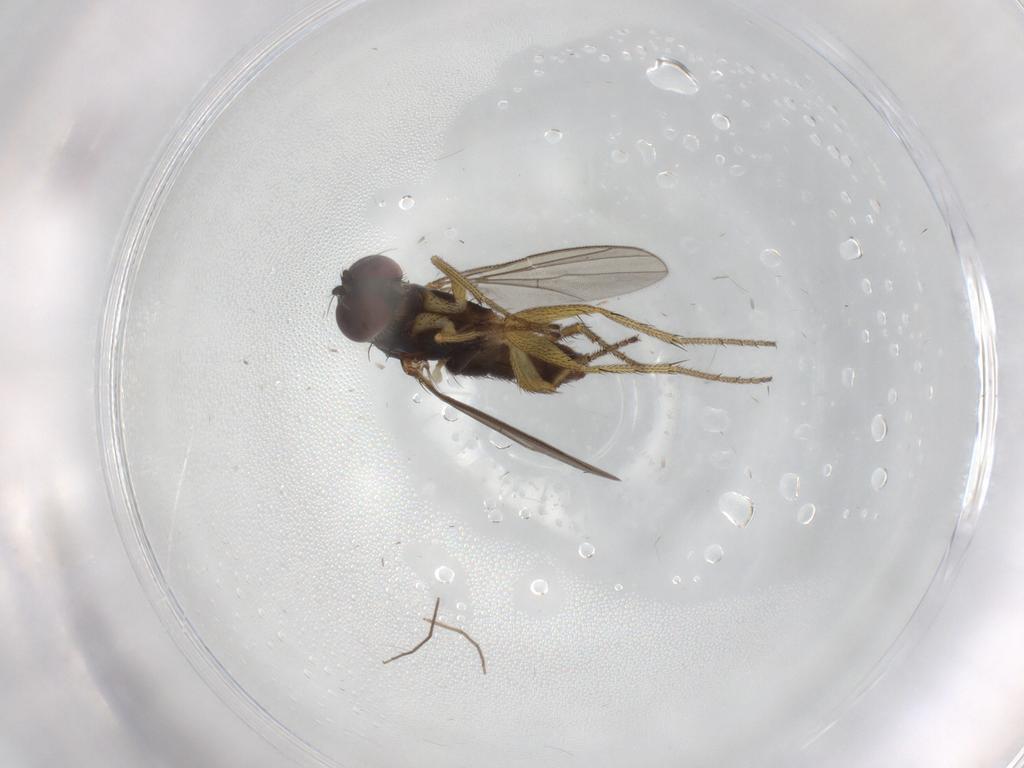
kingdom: Animalia
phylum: Arthropoda
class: Insecta
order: Diptera
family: Chironomidae
